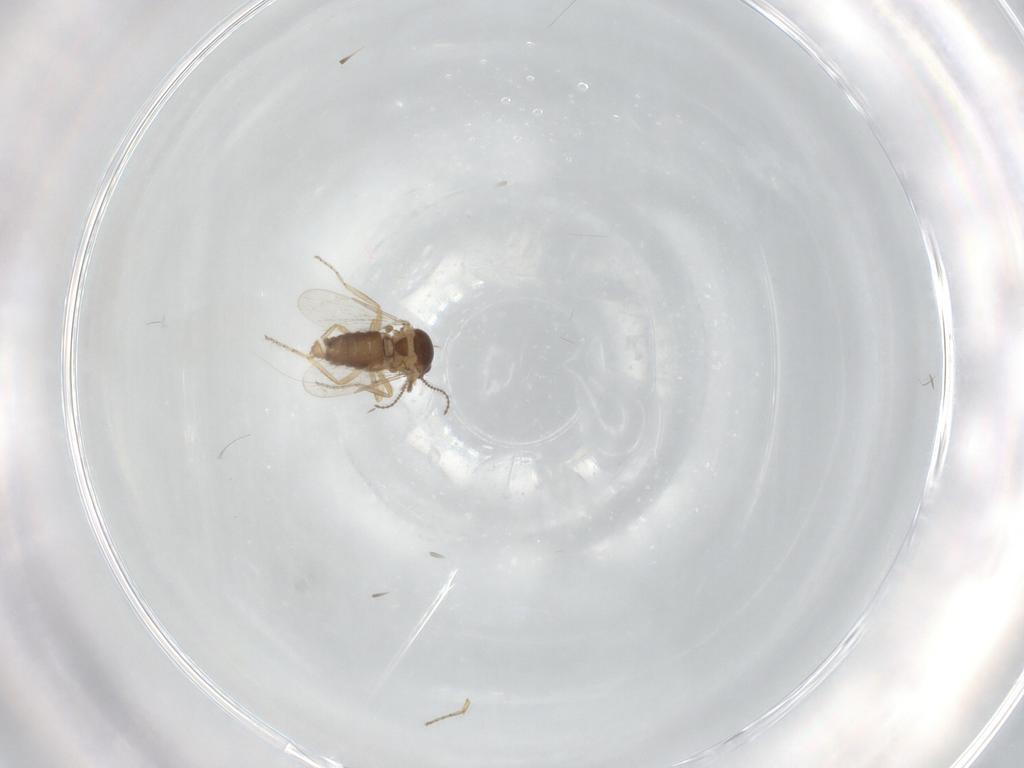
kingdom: Animalia
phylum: Arthropoda
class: Insecta
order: Diptera
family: Ceratopogonidae
